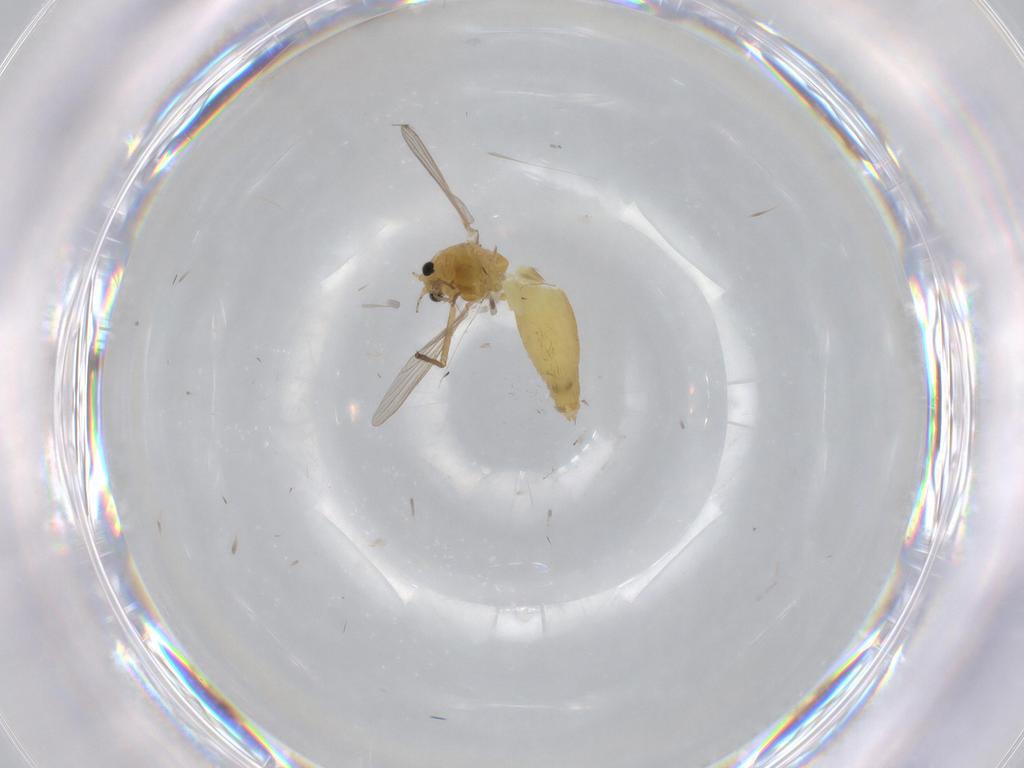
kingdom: Animalia
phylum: Arthropoda
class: Insecta
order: Diptera
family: Chironomidae
